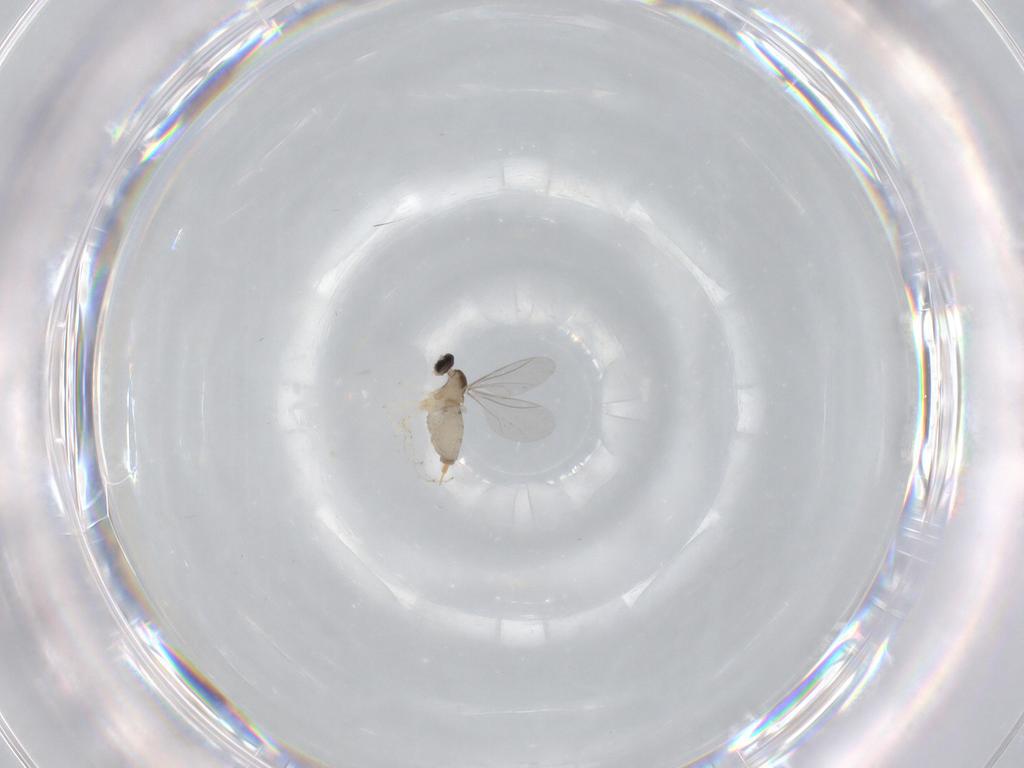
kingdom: Animalia
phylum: Arthropoda
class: Insecta
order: Diptera
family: Cecidomyiidae
